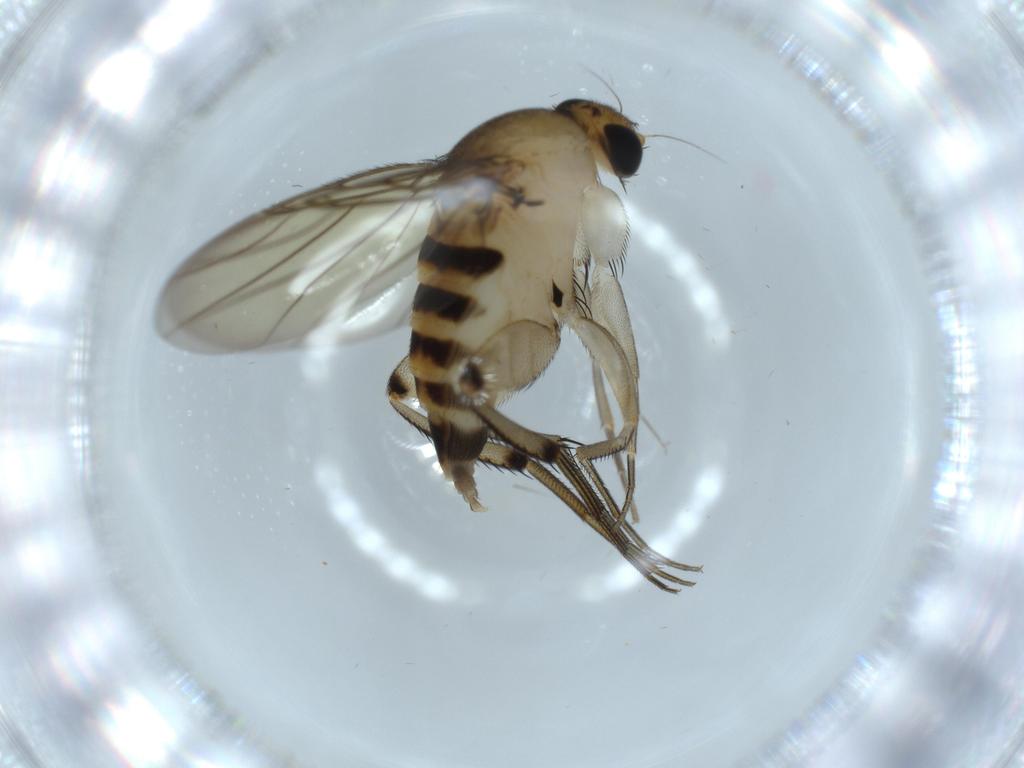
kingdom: Animalia
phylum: Arthropoda
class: Insecta
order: Diptera
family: Phoridae
